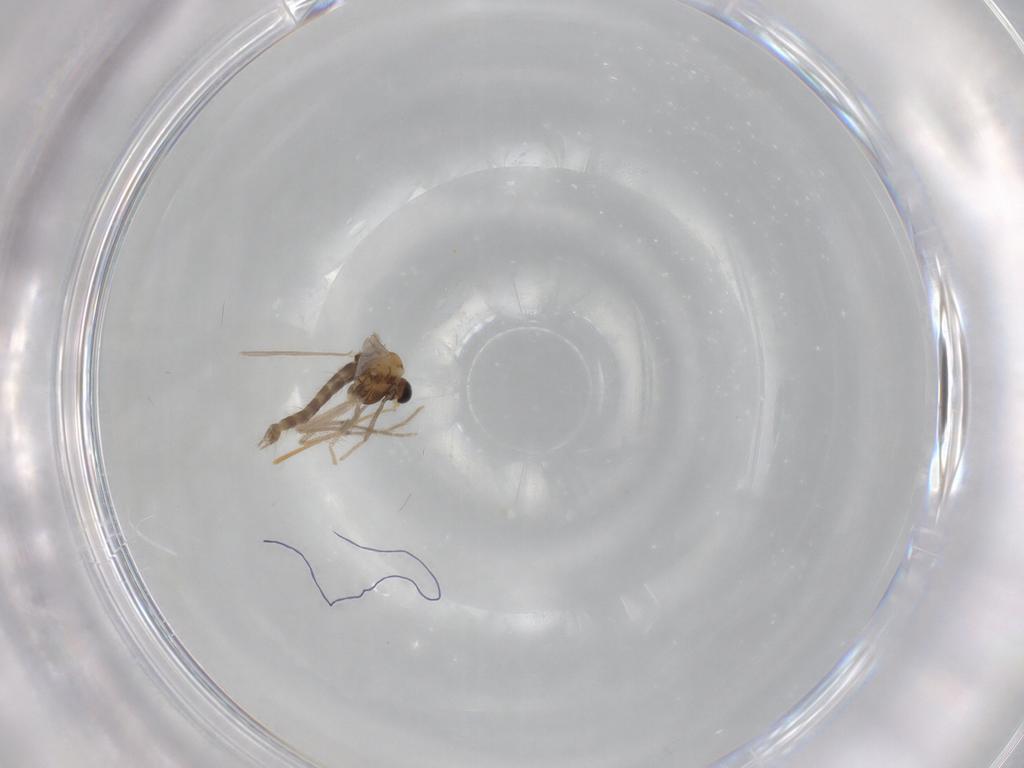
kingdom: Animalia
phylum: Arthropoda
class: Insecta
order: Diptera
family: Chironomidae
